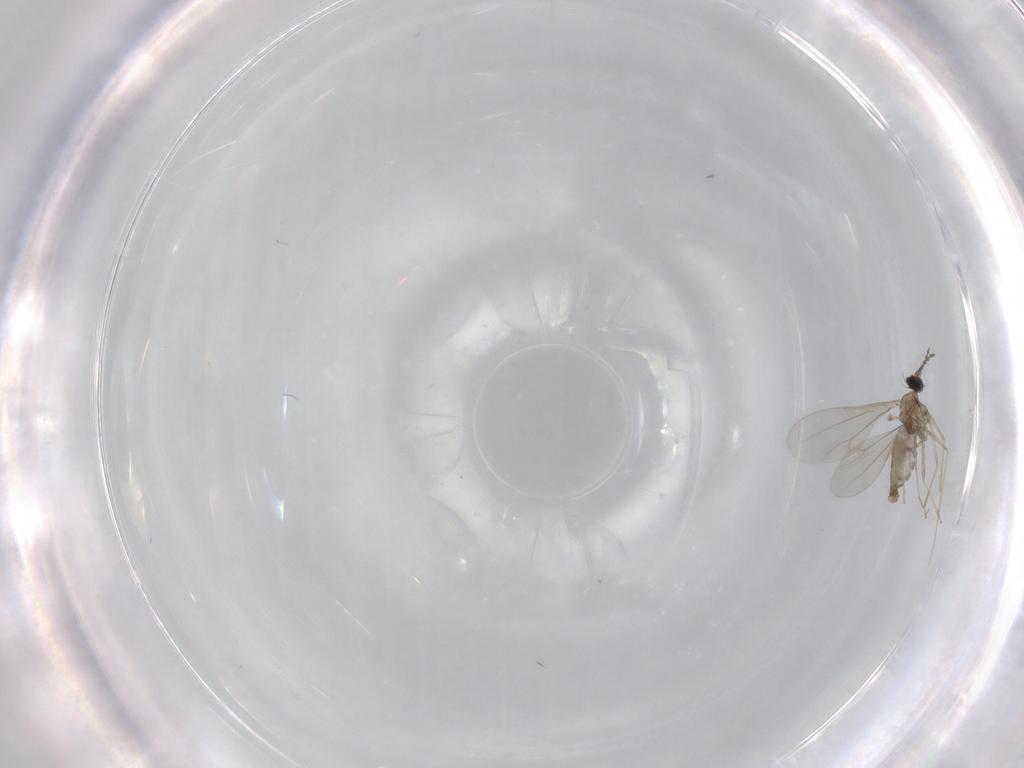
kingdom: Animalia
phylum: Arthropoda
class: Insecta
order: Diptera
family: Cecidomyiidae
